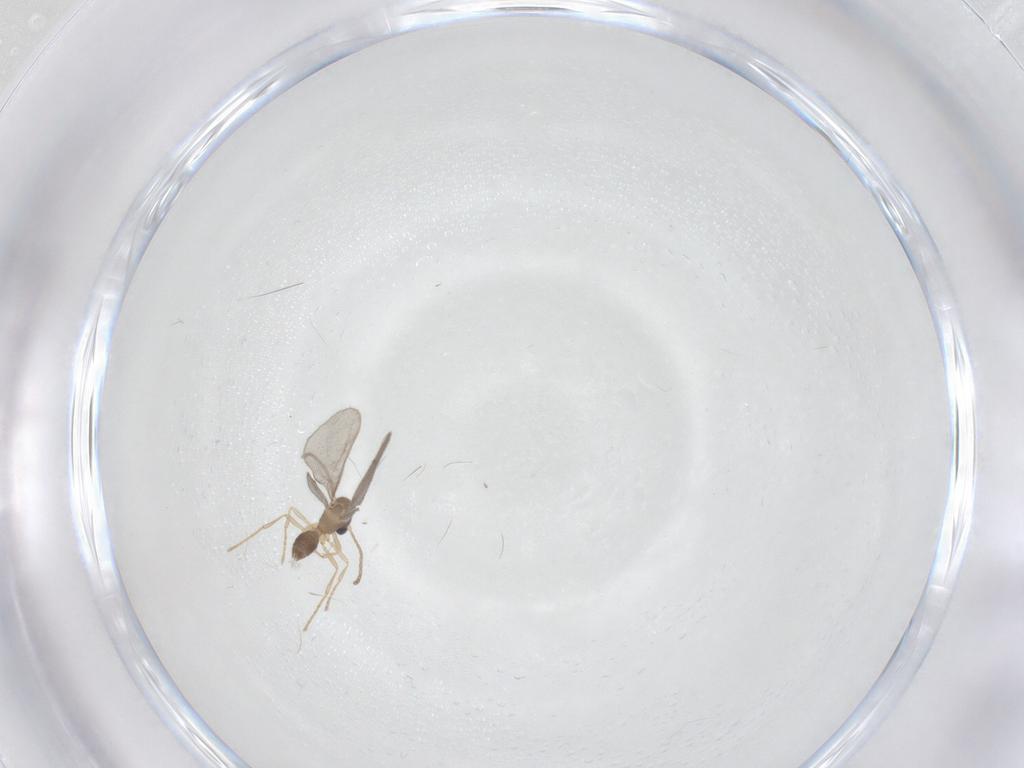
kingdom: Animalia
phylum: Arthropoda
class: Insecta
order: Hymenoptera
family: Formicidae
